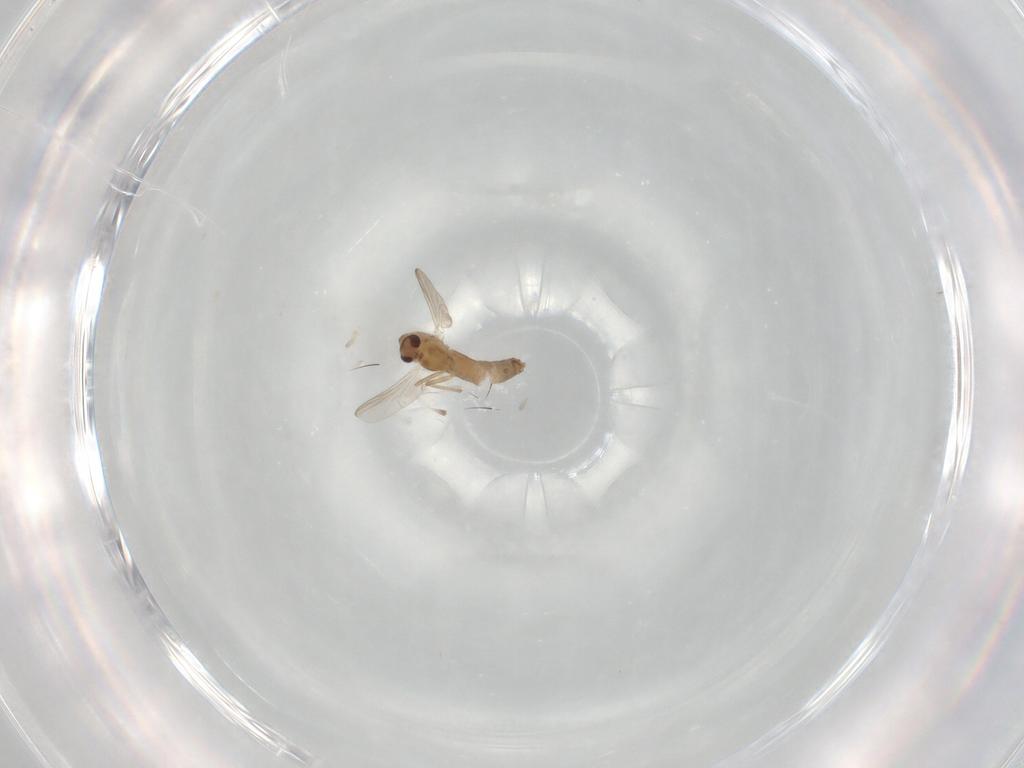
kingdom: Animalia
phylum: Arthropoda
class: Insecta
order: Diptera
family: Muscidae
